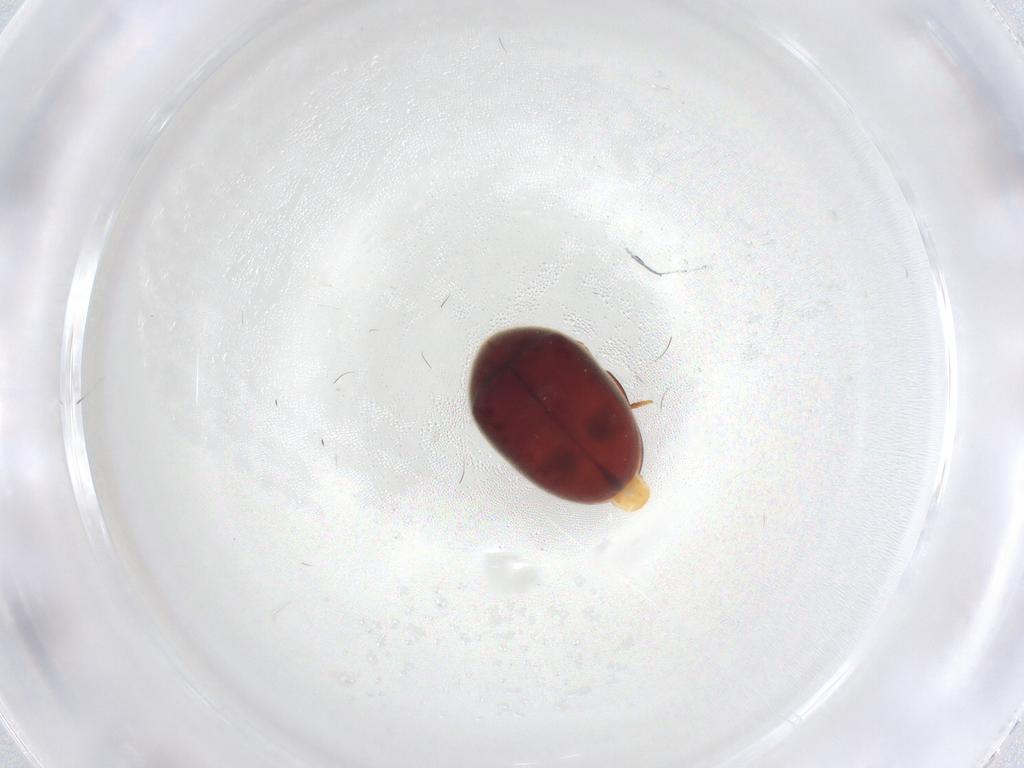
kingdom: Animalia
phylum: Arthropoda
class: Insecta
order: Coleoptera
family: Ptinidae
